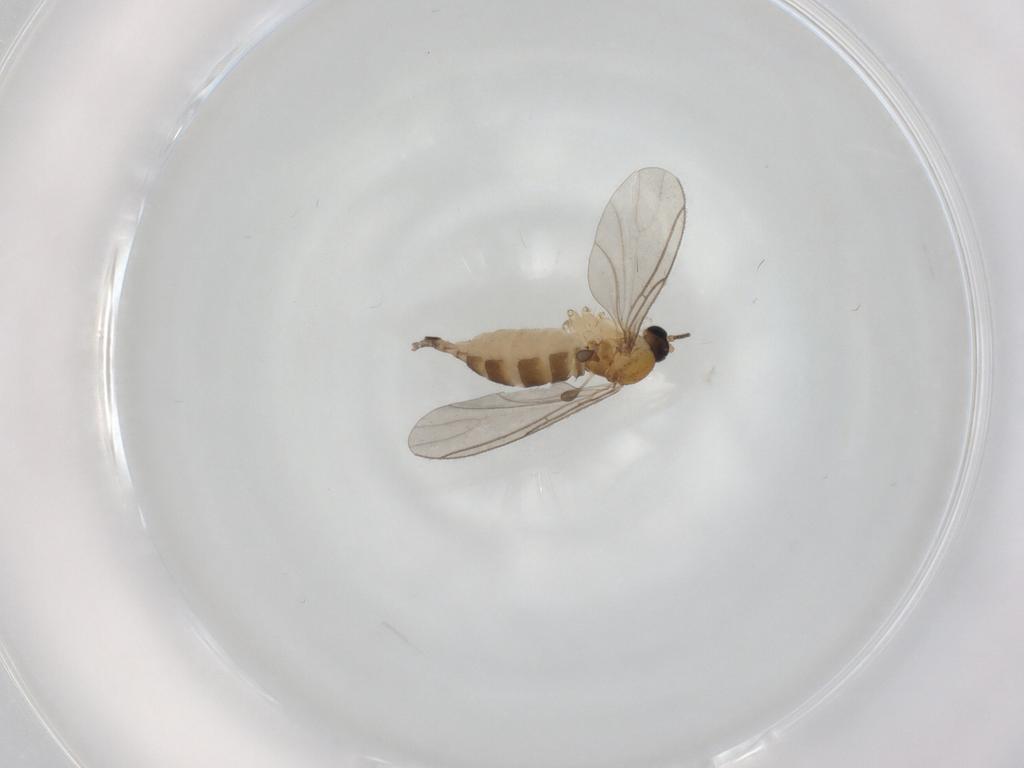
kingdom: Animalia
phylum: Arthropoda
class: Insecta
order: Diptera
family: Sciaridae
